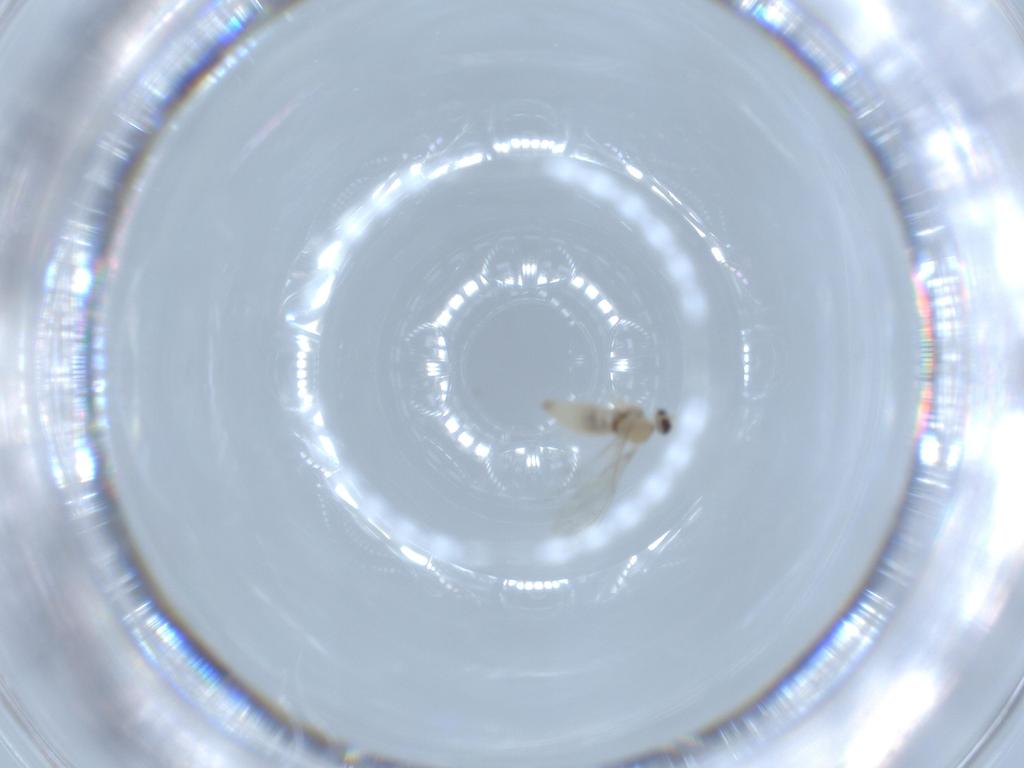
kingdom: Animalia
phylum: Arthropoda
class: Insecta
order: Diptera
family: Cecidomyiidae
